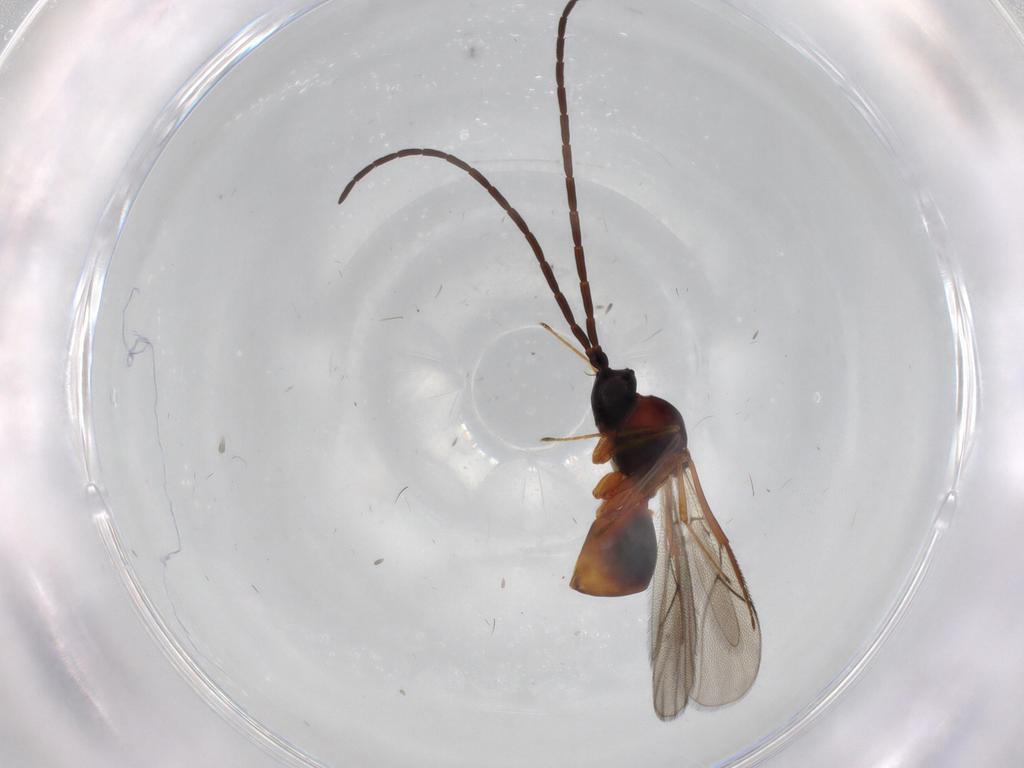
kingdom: Animalia
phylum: Arthropoda
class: Insecta
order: Hymenoptera
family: Figitidae
